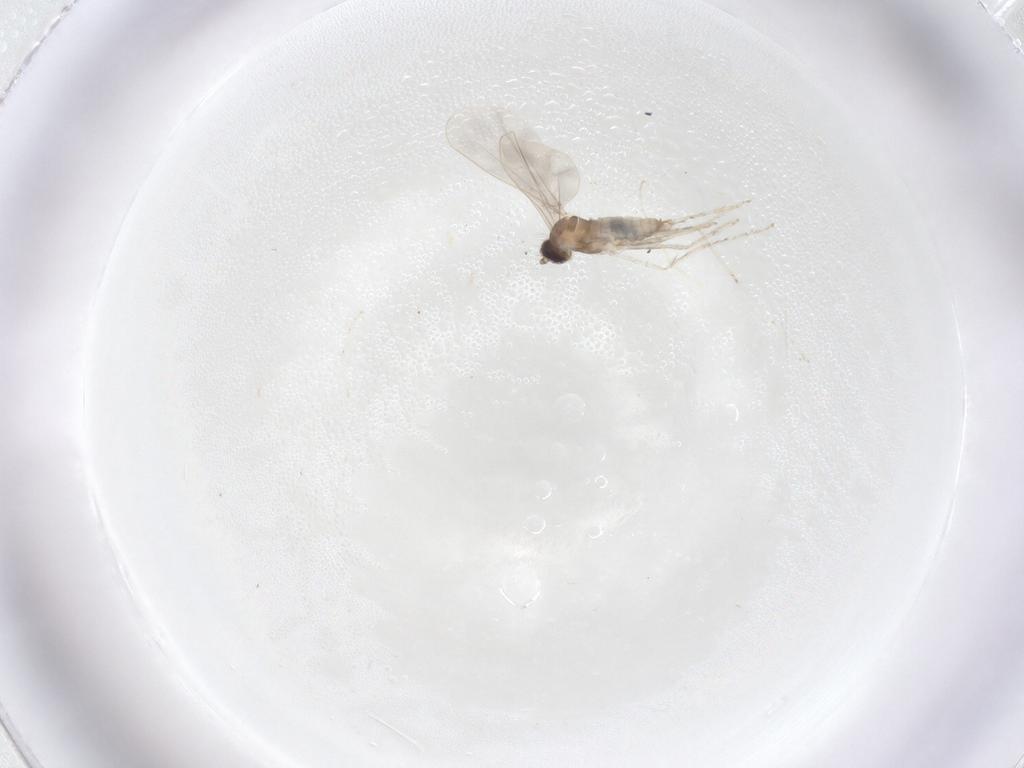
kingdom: Animalia
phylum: Arthropoda
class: Insecta
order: Diptera
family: Cecidomyiidae
